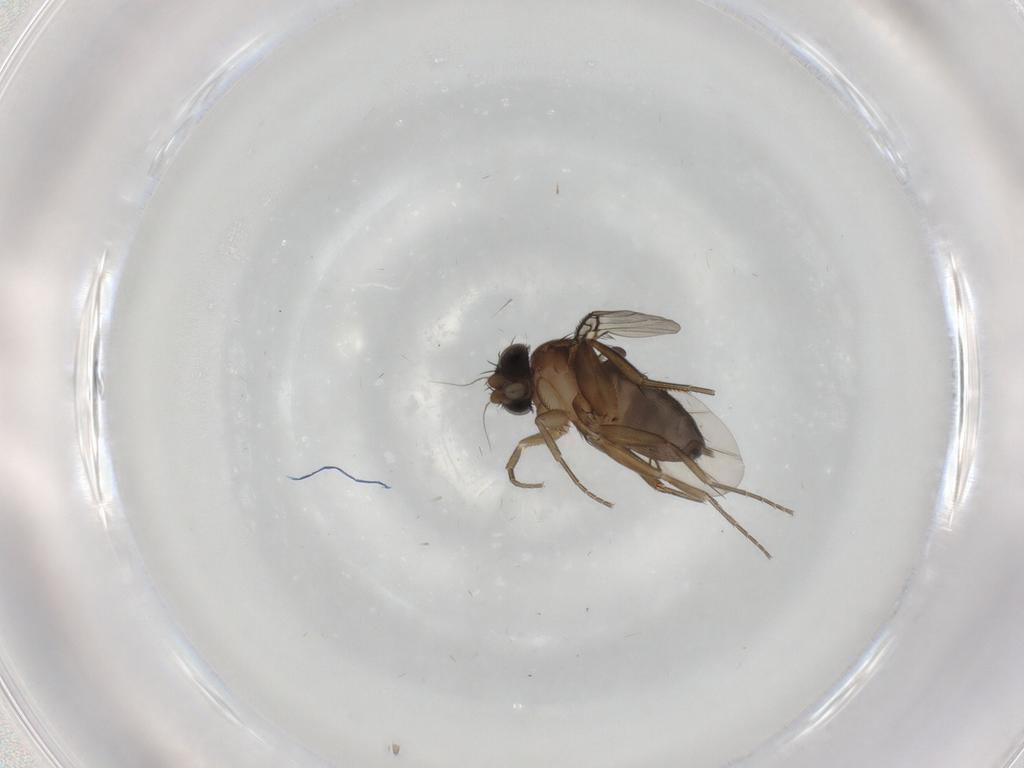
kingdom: Animalia
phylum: Arthropoda
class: Insecta
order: Diptera
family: Phoridae
